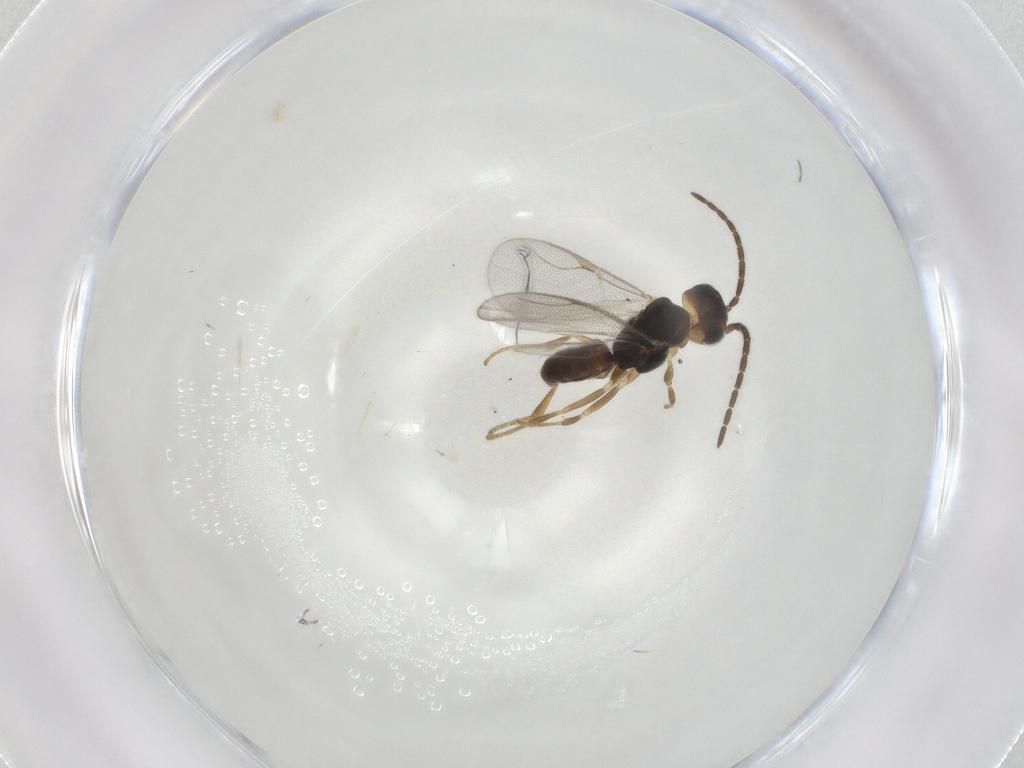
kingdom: Animalia
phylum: Arthropoda
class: Insecta
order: Hymenoptera
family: Dryinidae
